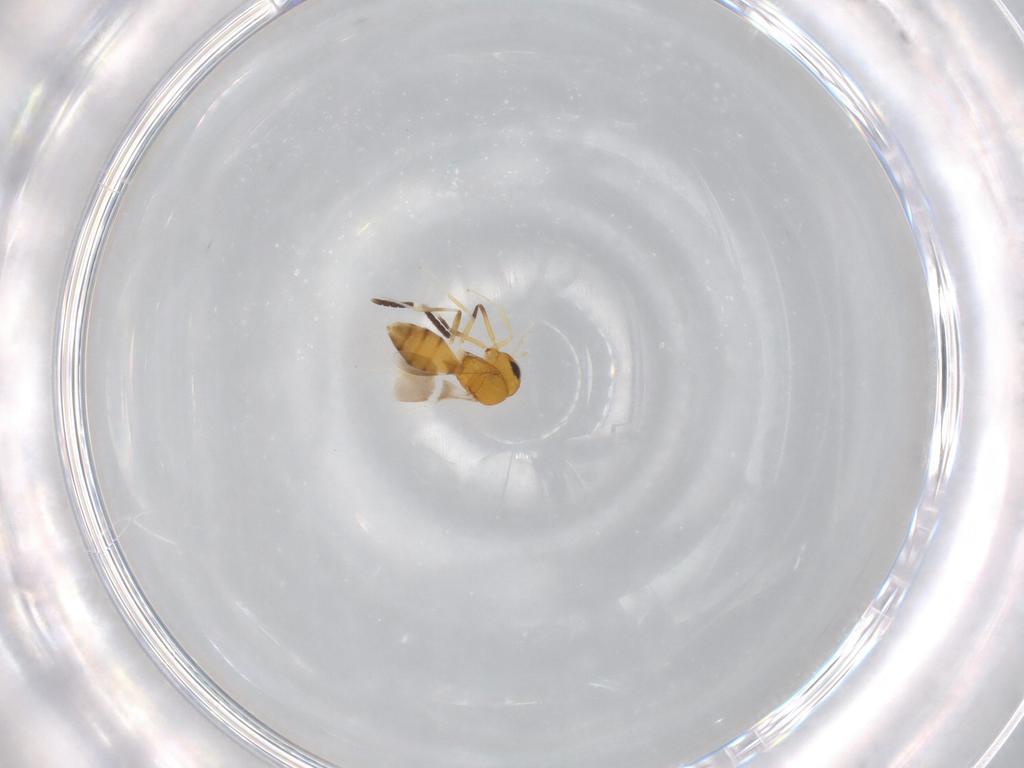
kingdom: Animalia
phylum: Arthropoda
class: Insecta
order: Hymenoptera
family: Scelionidae
